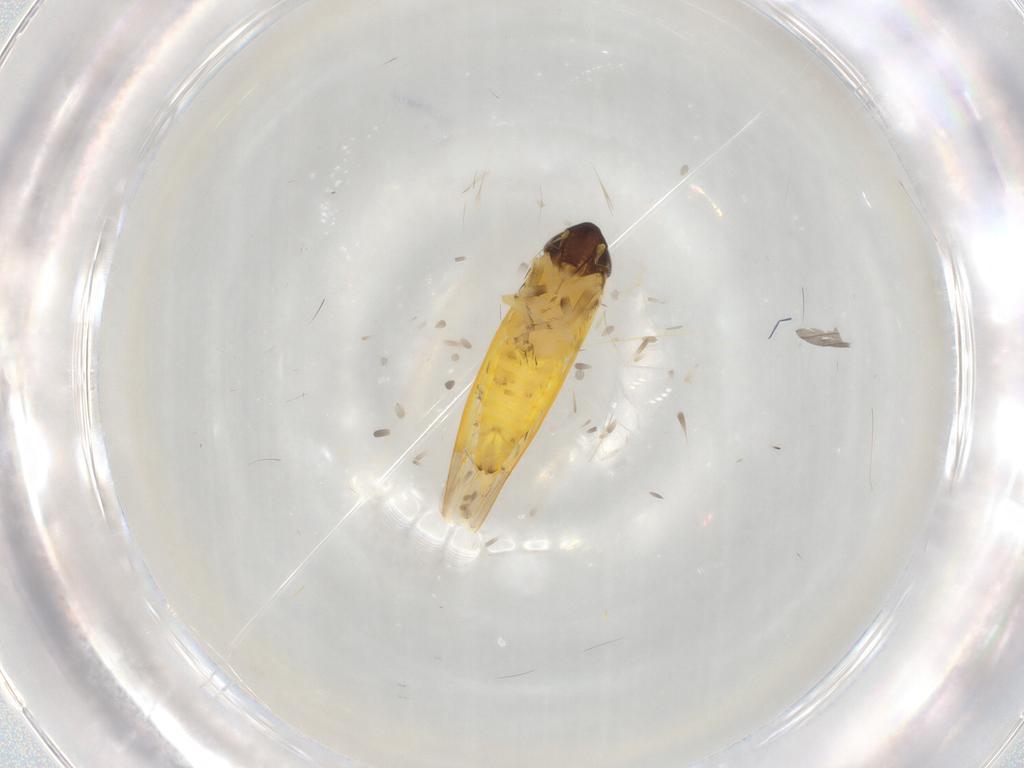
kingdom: Animalia
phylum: Arthropoda
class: Insecta
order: Hemiptera
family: Cicadellidae
